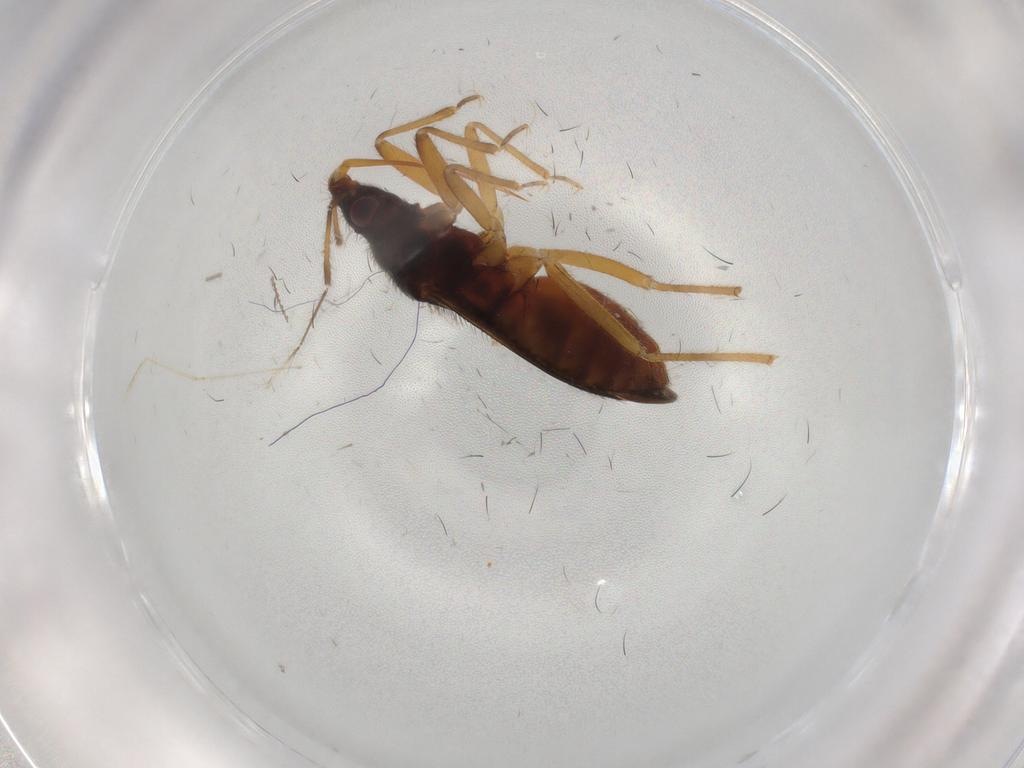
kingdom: Animalia
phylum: Arthropoda
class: Insecta
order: Hemiptera
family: Anthocoridae
